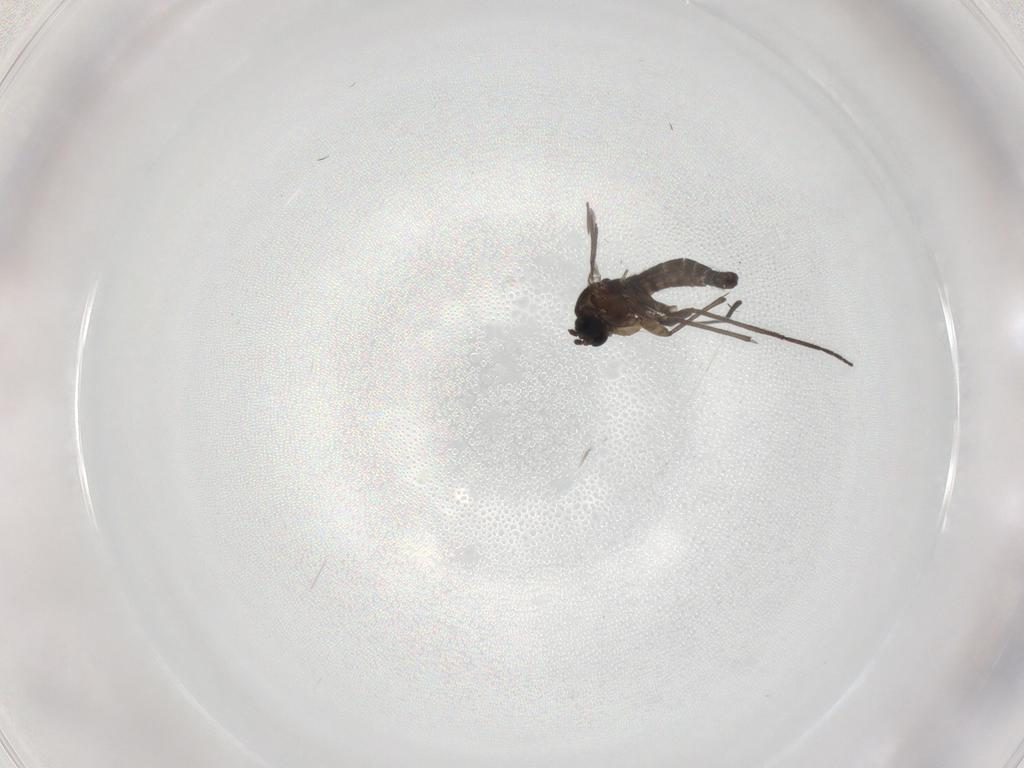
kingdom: Animalia
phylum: Arthropoda
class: Insecta
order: Diptera
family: Sciaridae
